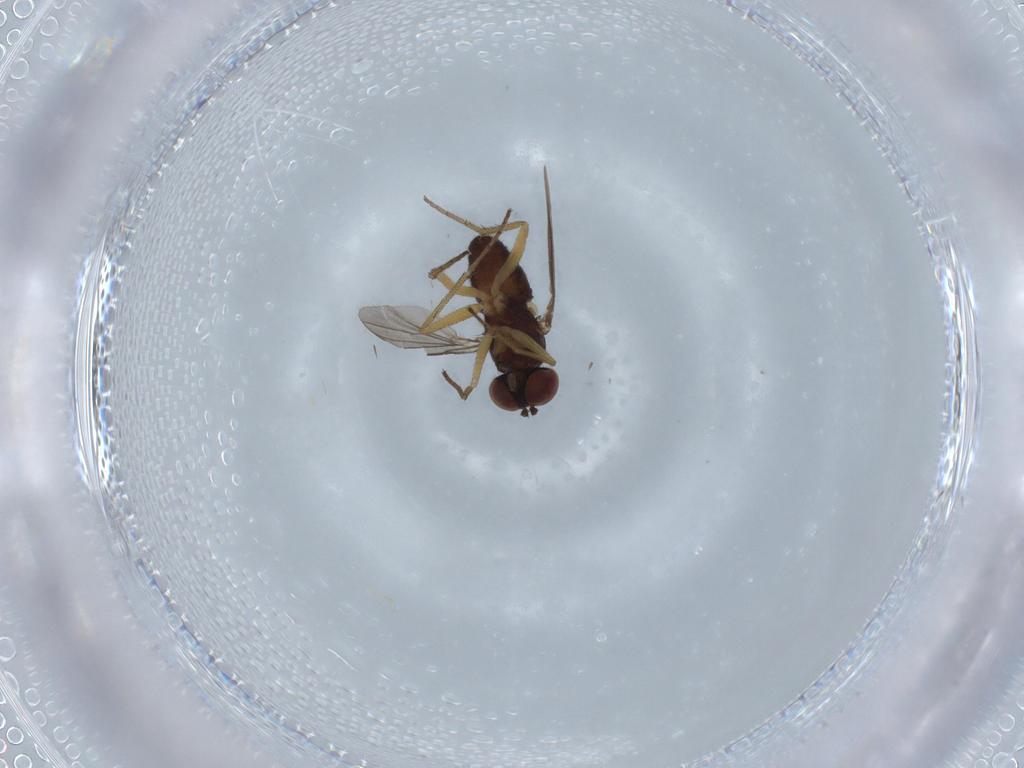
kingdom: Animalia
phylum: Arthropoda
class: Insecta
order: Diptera
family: Dolichopodidae
